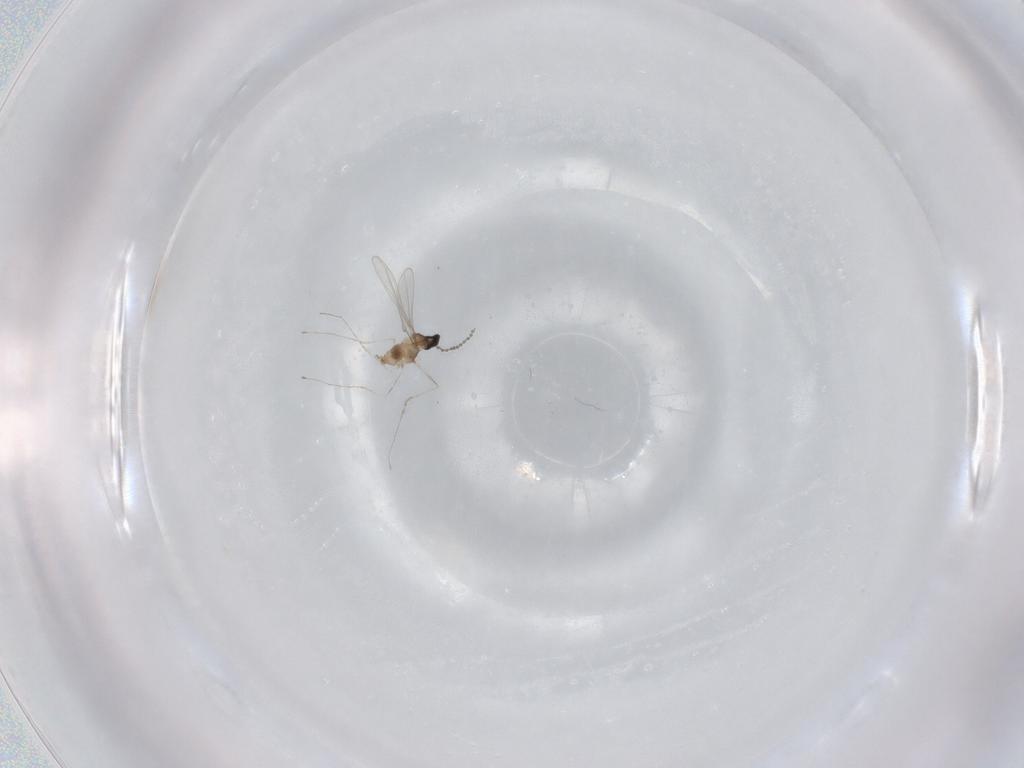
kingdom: Animalia
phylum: Arthropoda
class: Insecta
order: Diptera
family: Cecidomyiidae
